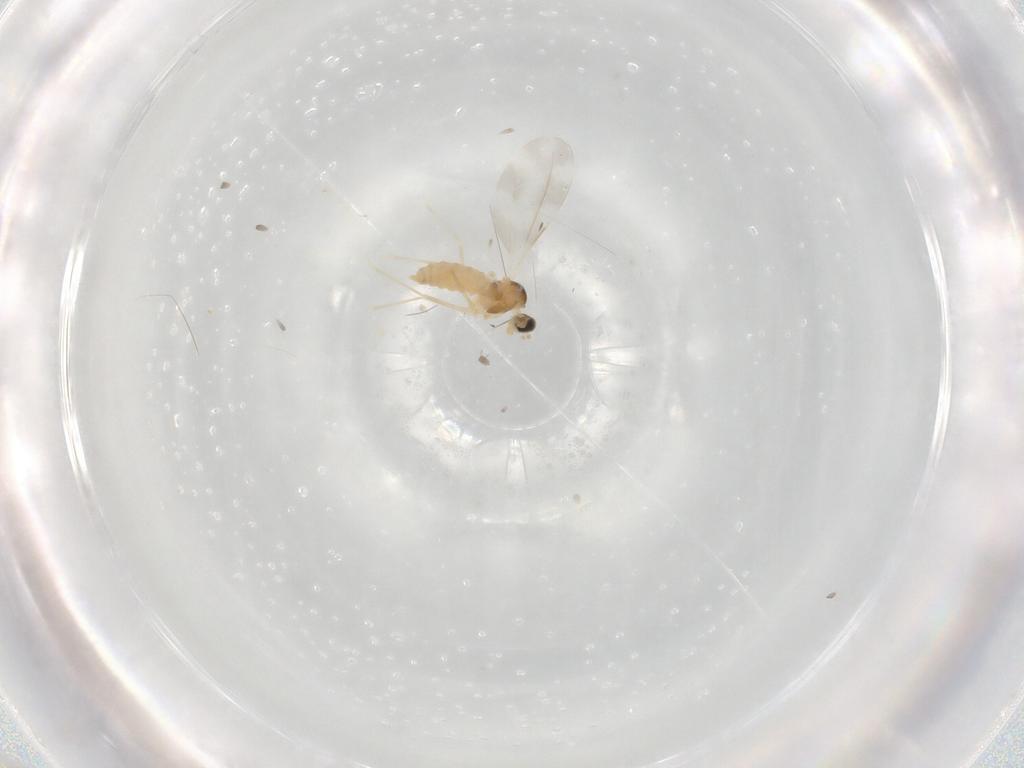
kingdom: Animalia
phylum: Arthropoda
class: Insecta
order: Diptera
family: Cecidomyiidae
